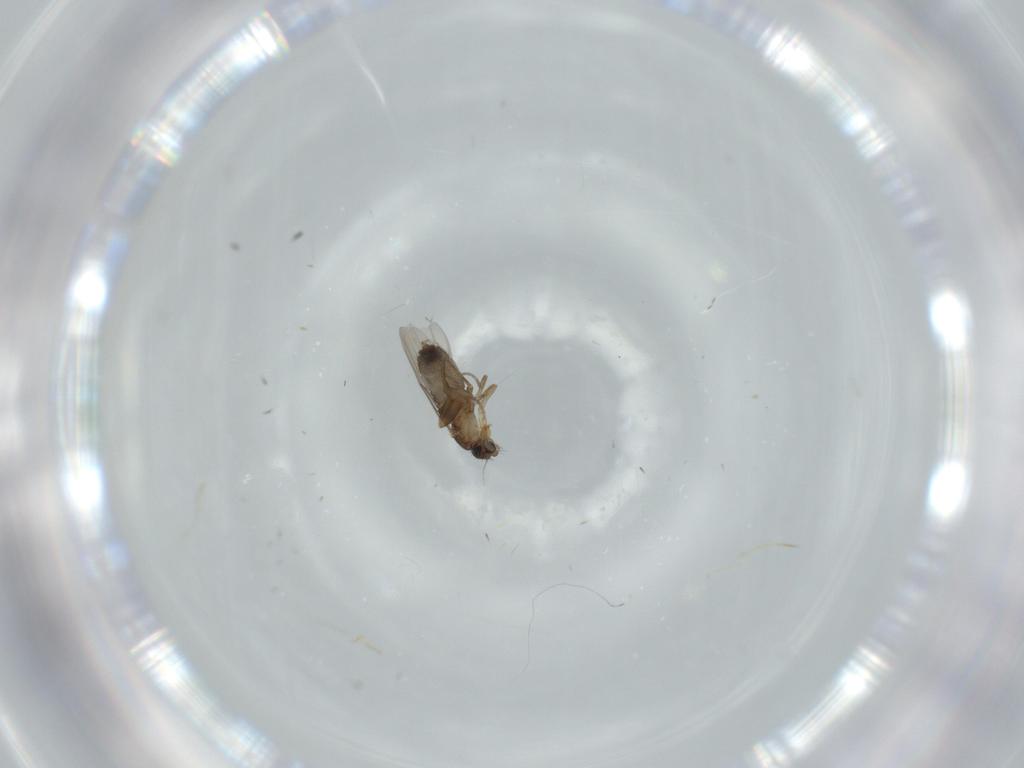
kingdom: Animalia
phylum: Arthropoda
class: Insecta
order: Diptera
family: Phoridae
